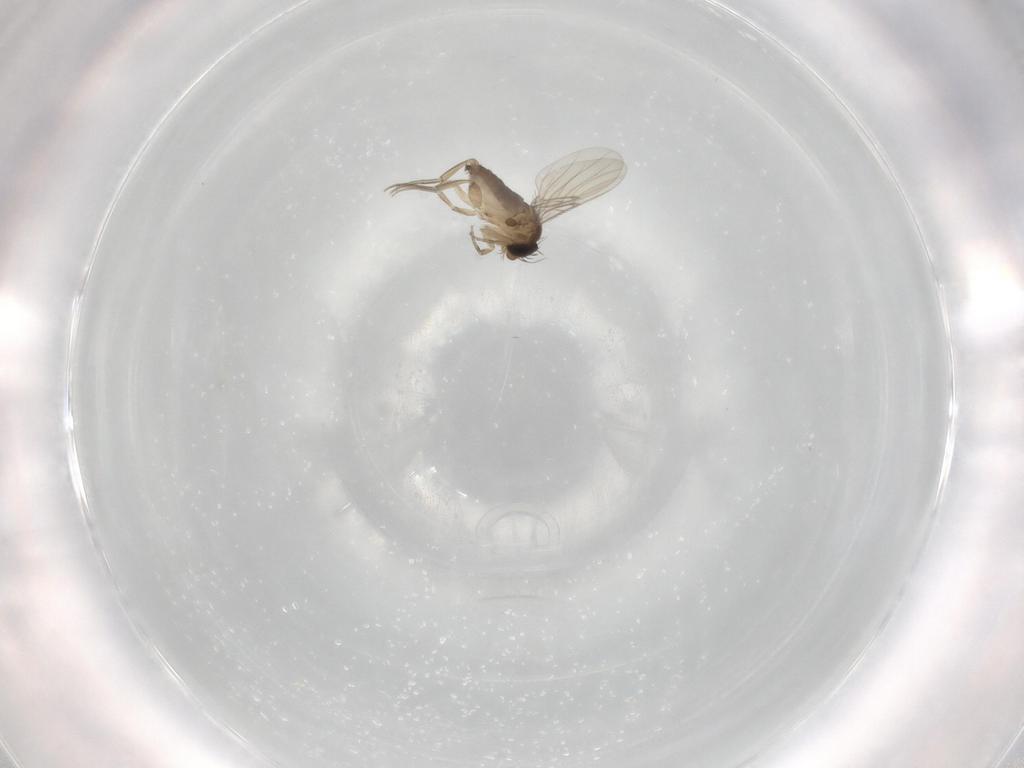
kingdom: Animalia
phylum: Arthropoda
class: Insecta
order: Diptera
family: Phoridae
